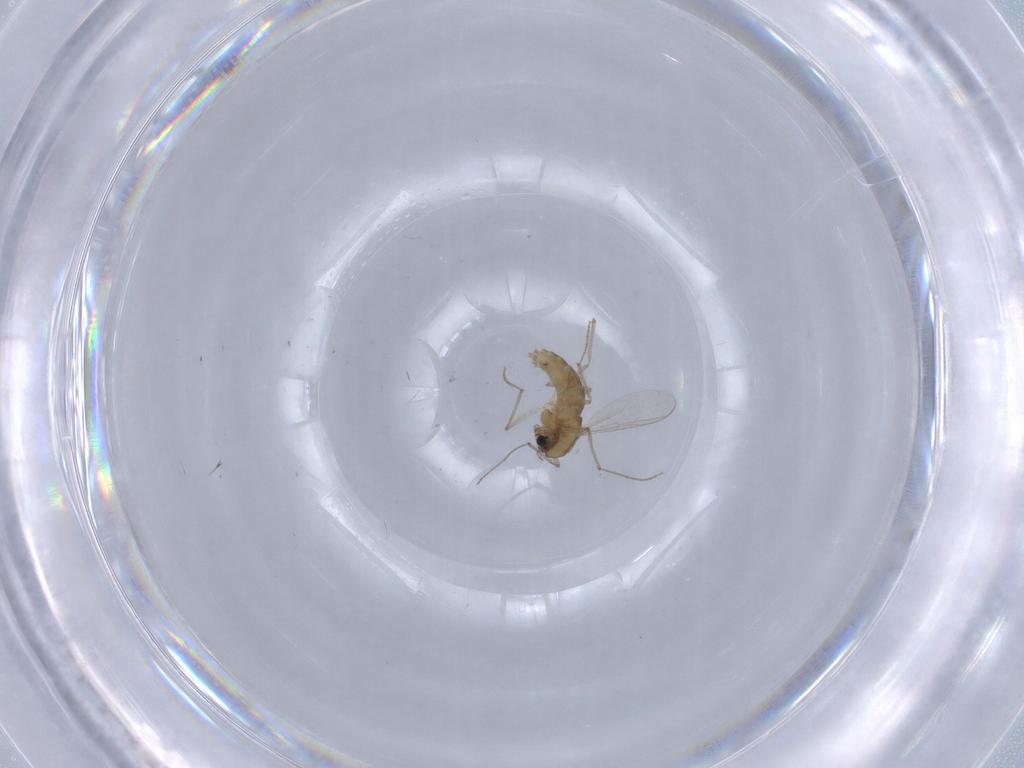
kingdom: Animalia
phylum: Arthropoda
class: Insecta
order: Diptera
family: Chironomidae
